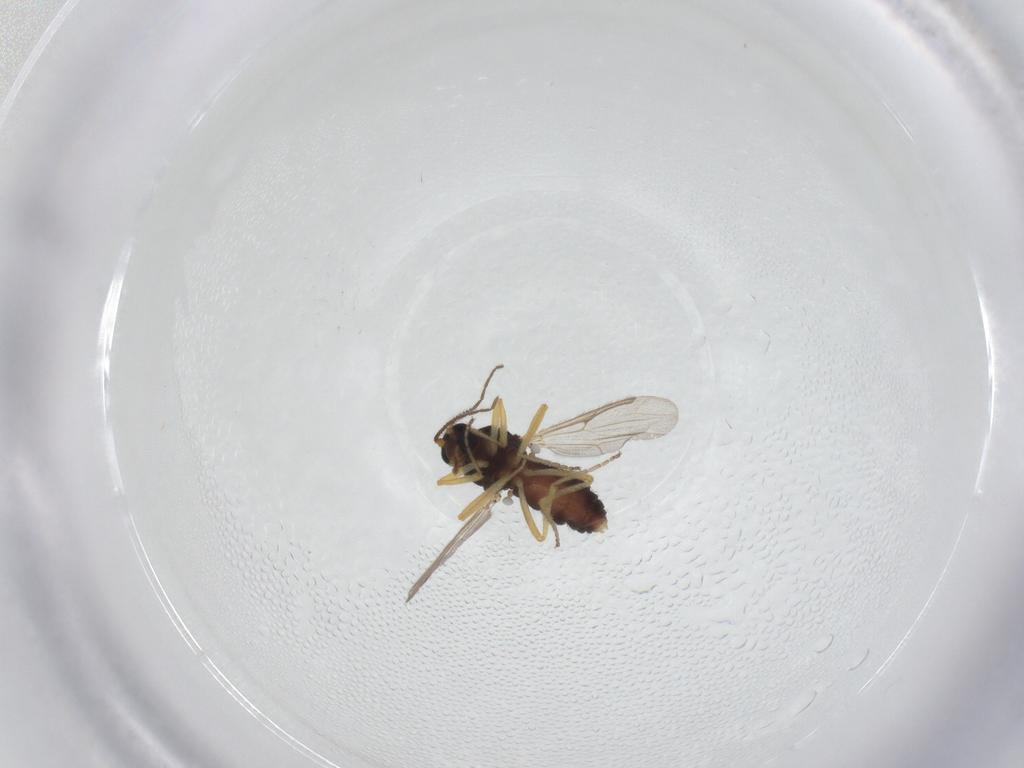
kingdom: Animalia
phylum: Arthropoda
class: Insecta
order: Diptera
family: Ceratopogonidae
